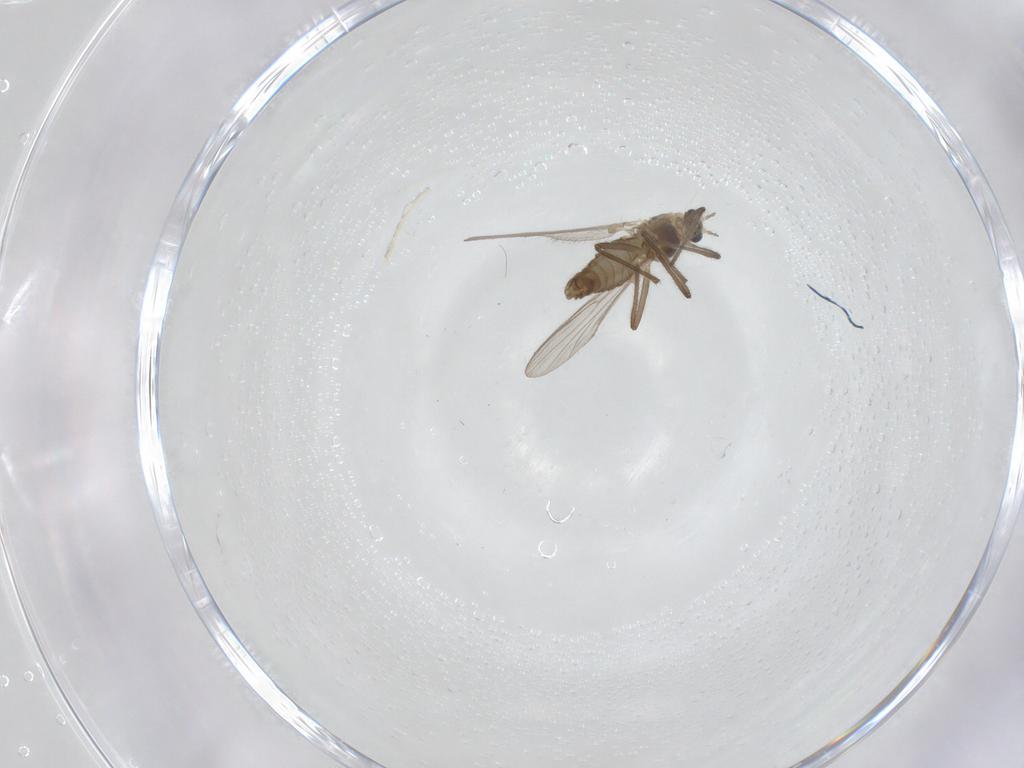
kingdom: Animalia
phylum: Arthropoda
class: Insecta
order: Diptera
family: Chironomidae
